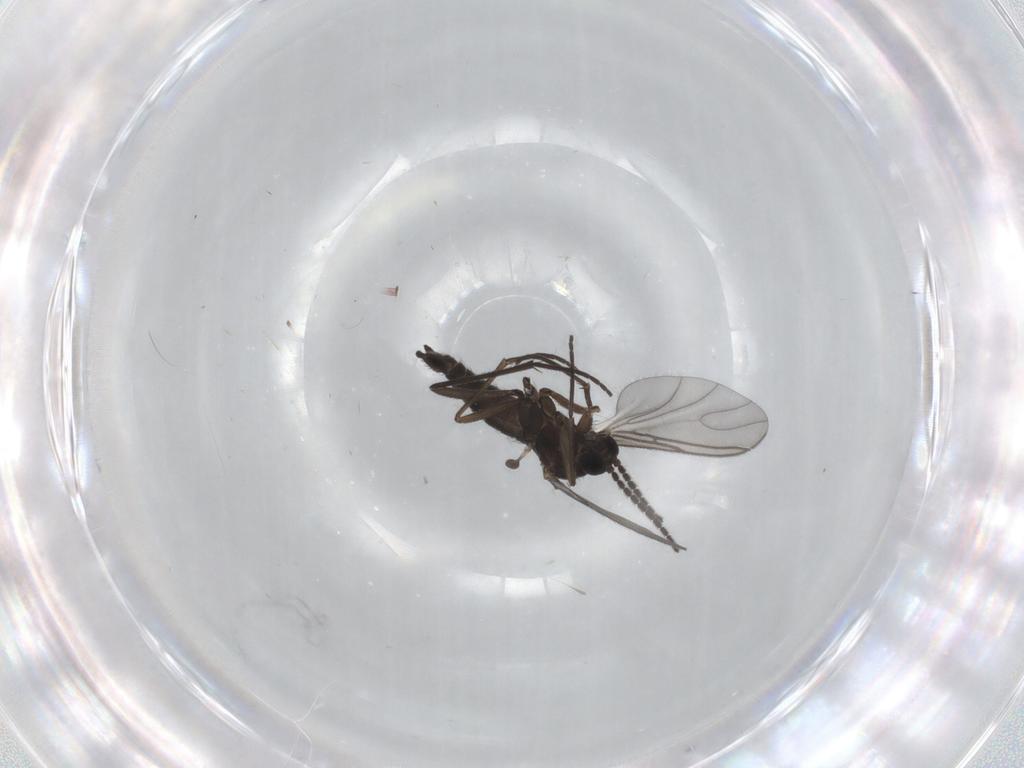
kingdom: Animalia
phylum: Arthropoda
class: Insecta
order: Diptera
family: Sciaridae
